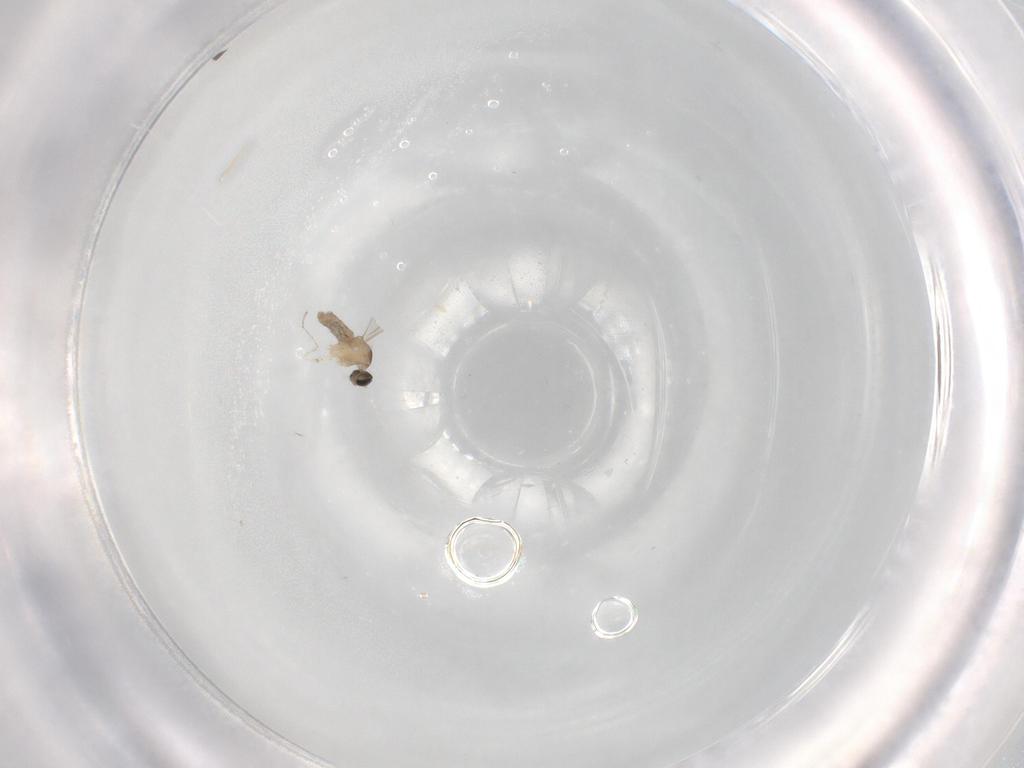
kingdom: Animalia
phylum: Arthropoda
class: Insecta
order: Diptera
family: Cecidomyiidae
